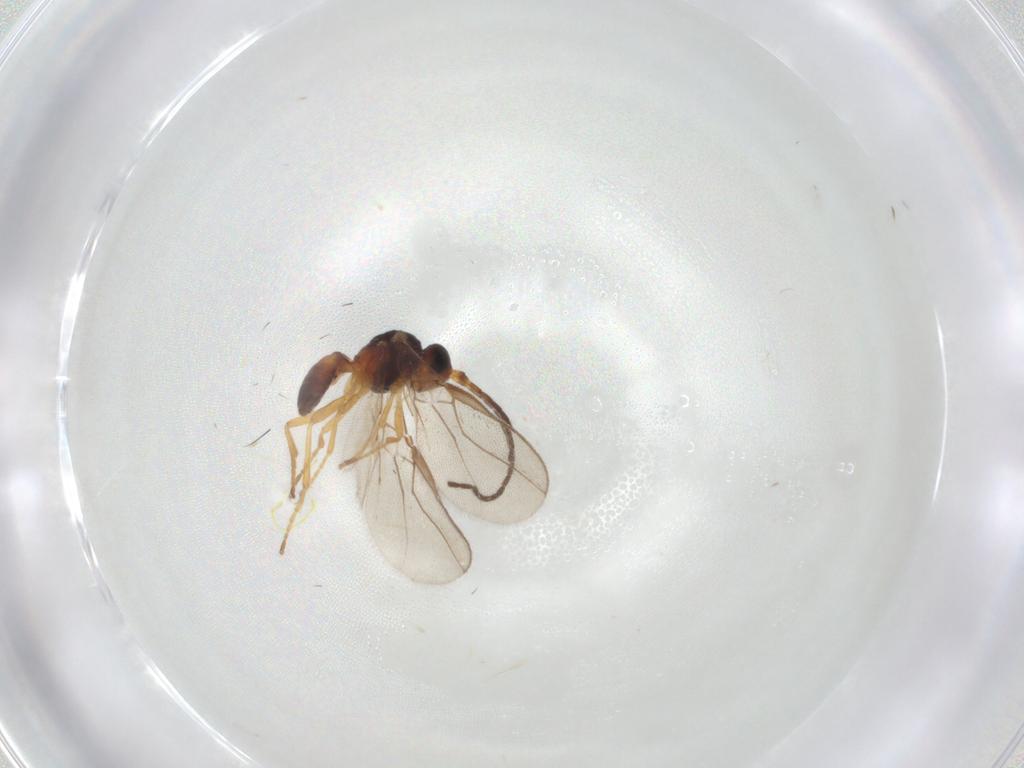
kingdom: Animalia
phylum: Arthropoda
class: Insecta
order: Hymenoptera
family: Braconidae
